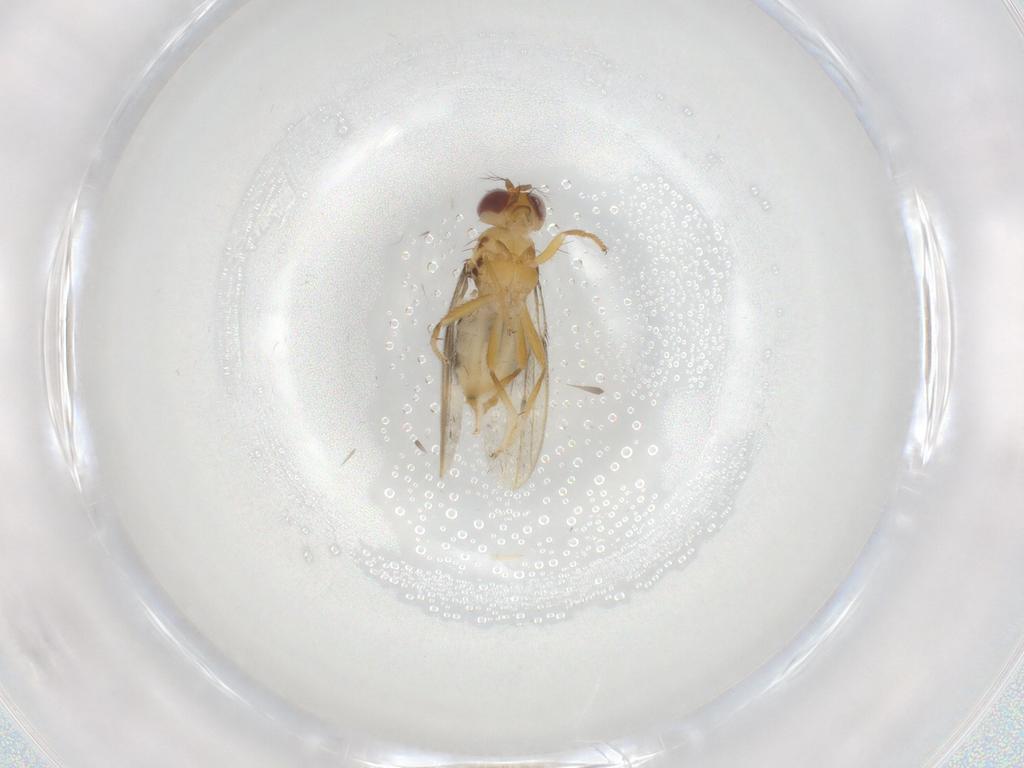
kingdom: Animalia
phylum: Arthropoda
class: Insecta
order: Diptera
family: Periscelididae
